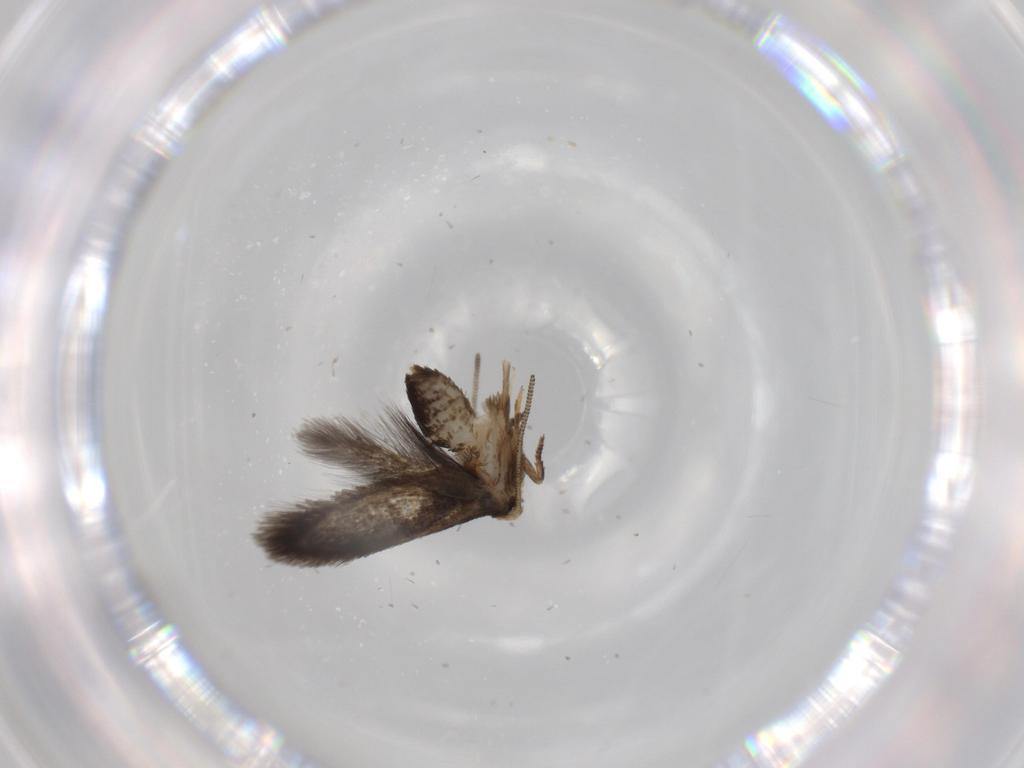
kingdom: Animalia
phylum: Arthropoda
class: Insecta
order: Lepidoptera
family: Nepticulidae
